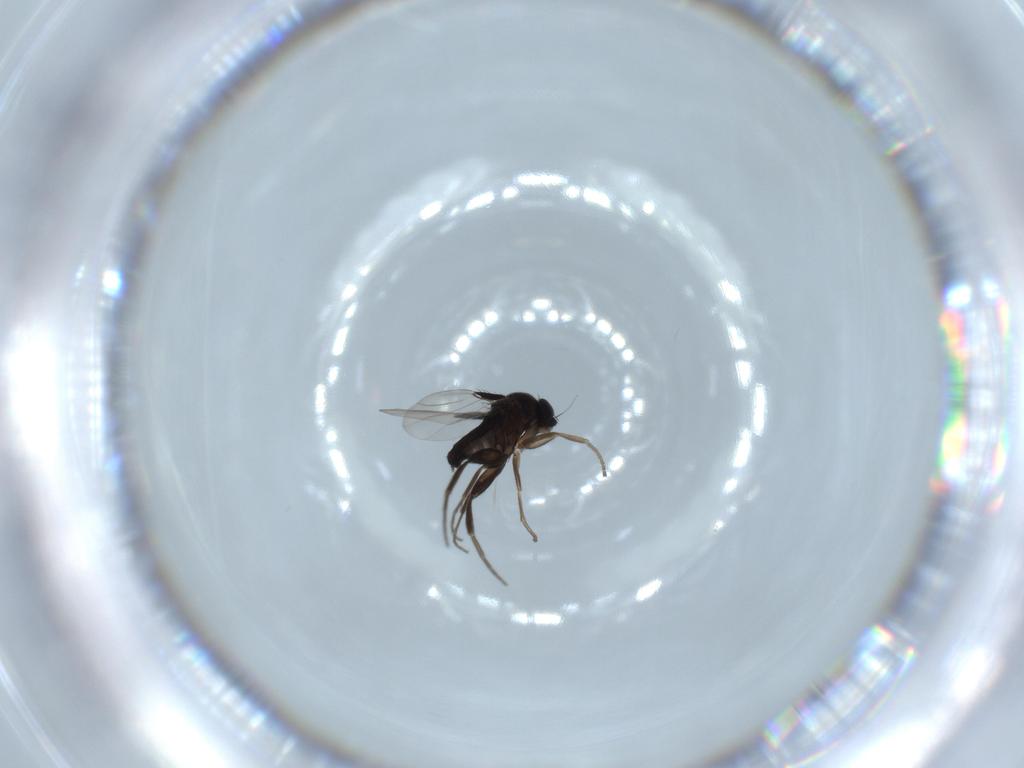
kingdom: Animalia
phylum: Arthropoda
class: Insecta
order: Diptera
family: Phoridae
